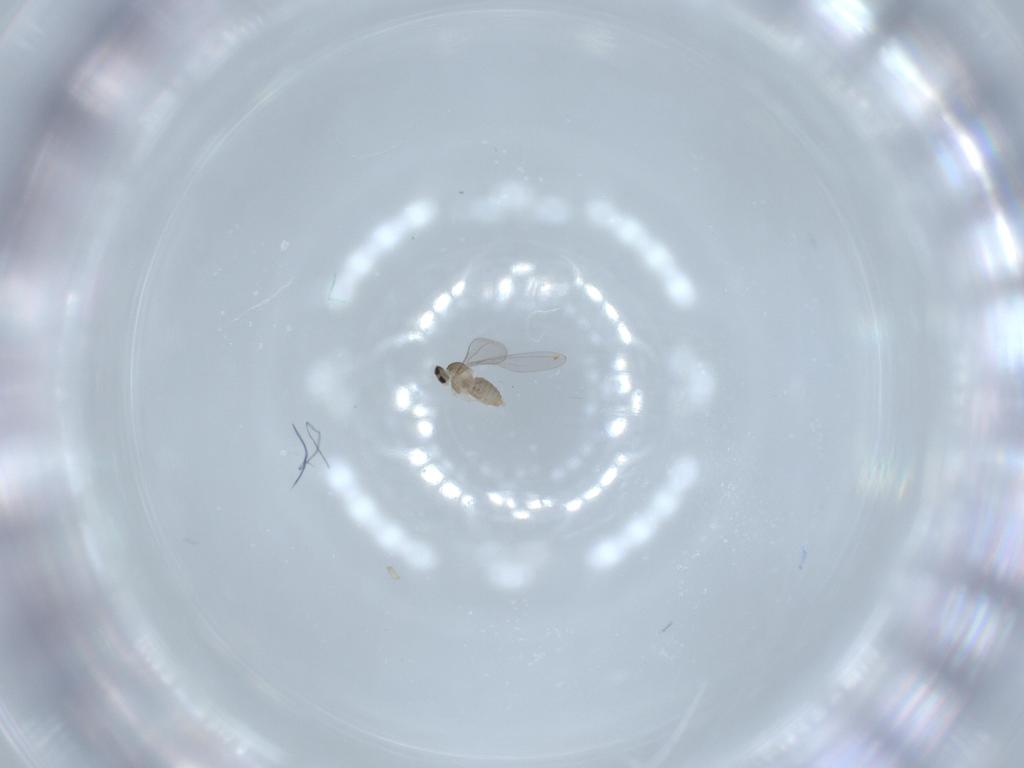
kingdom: Animalia
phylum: Arthropoda
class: Insecta
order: Diptera
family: Cecidomyiidae
